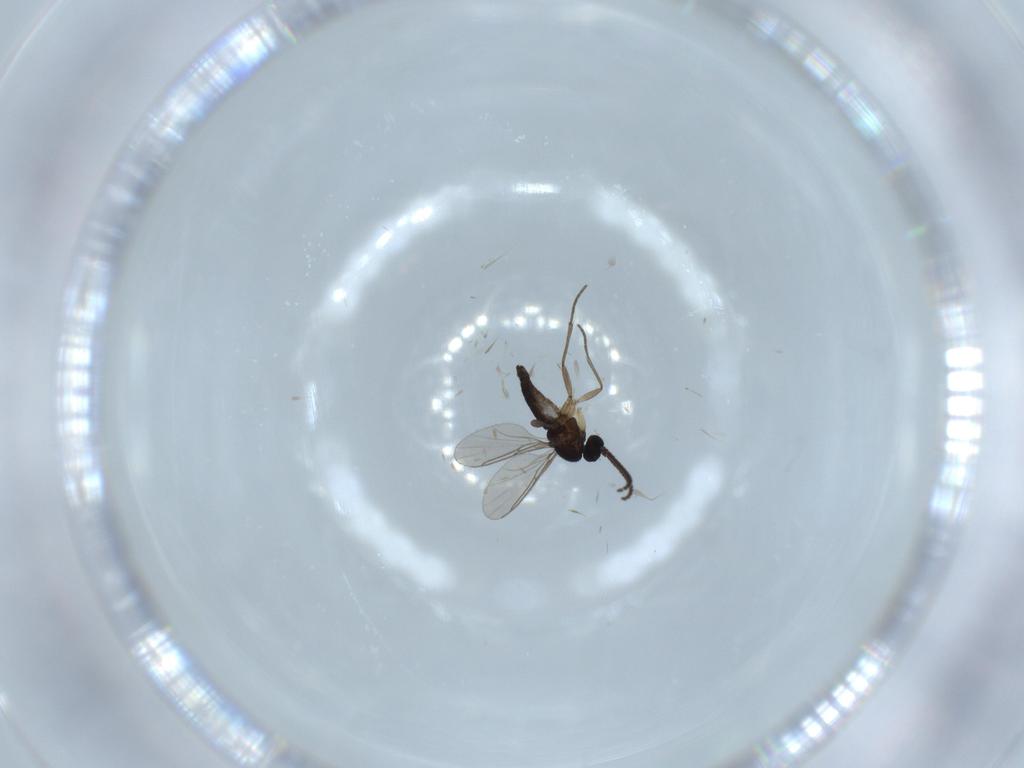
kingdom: Animalia
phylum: Arthropoda
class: Insecta
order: Diptera
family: Sciaridae
